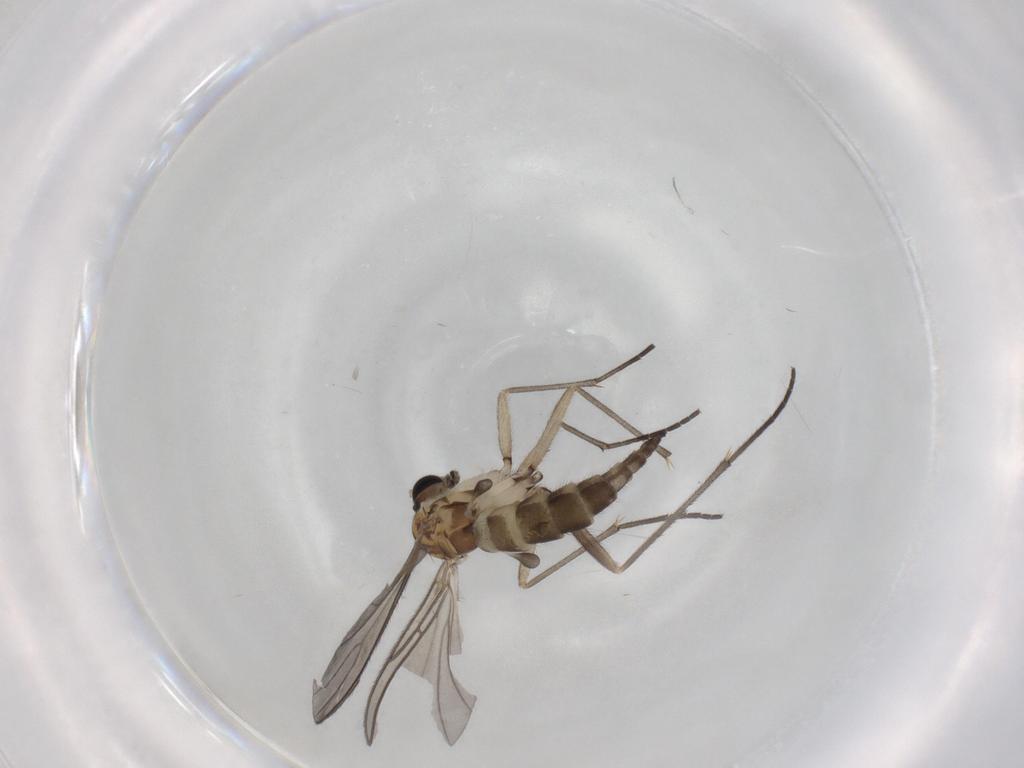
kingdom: Animalia
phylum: Arthropoda
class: Insecta
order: Diptera
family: Sciaridae
